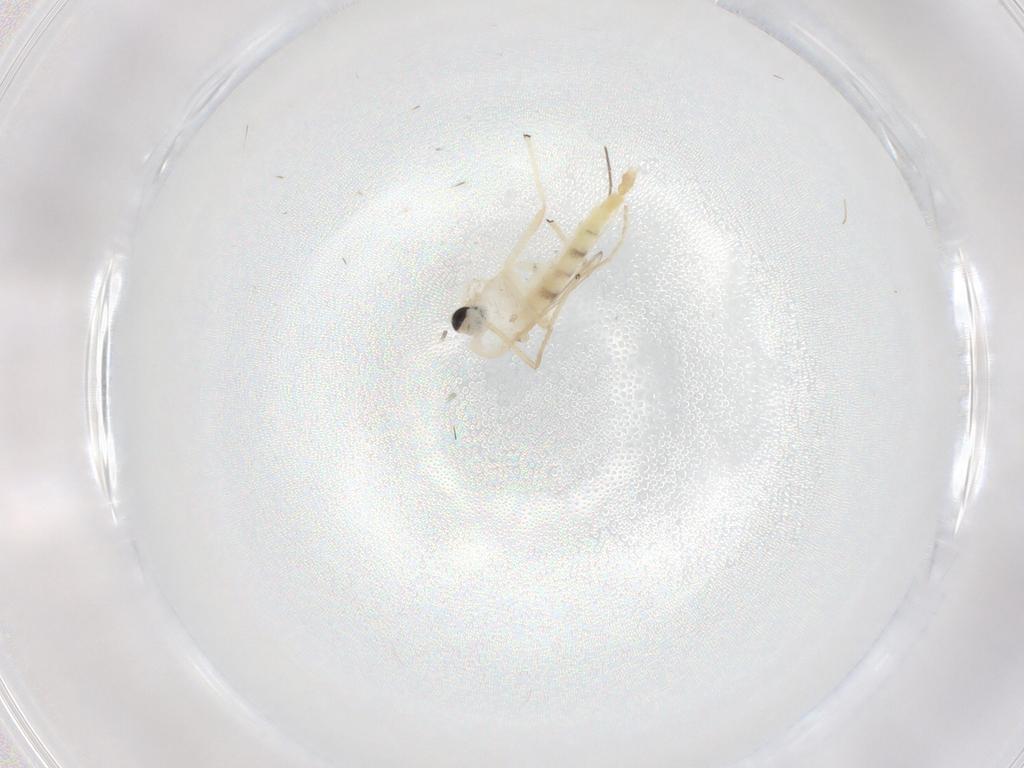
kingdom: Animalia
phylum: Arthropoda
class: Insecta
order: Diptera
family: Chironomidae
